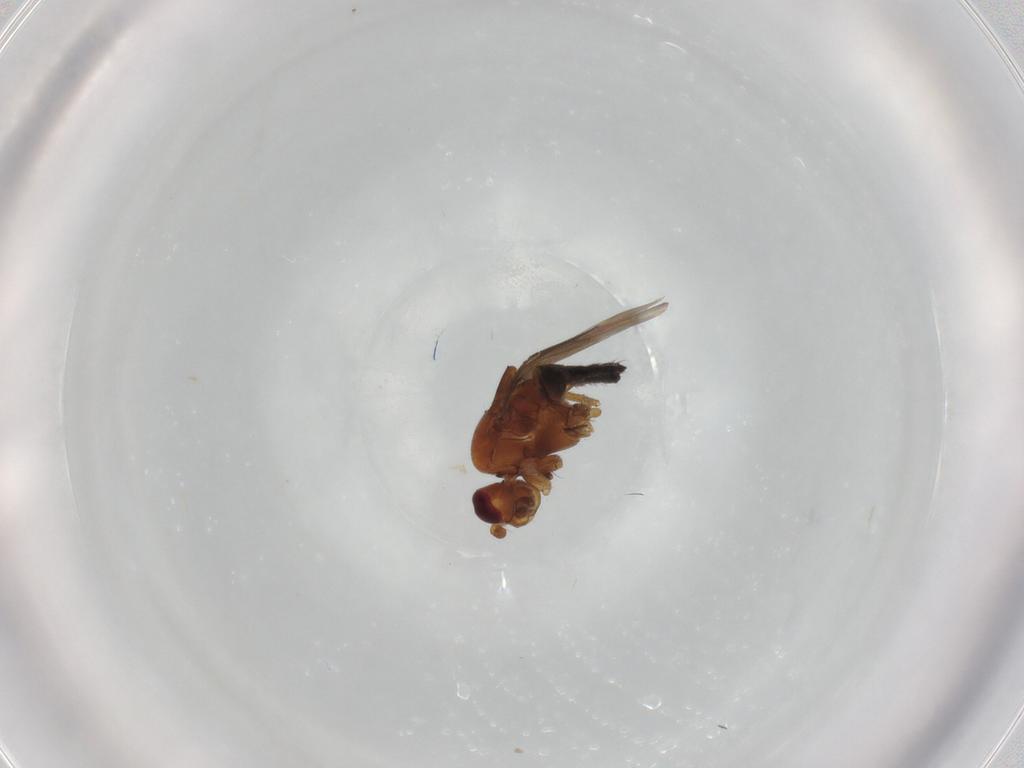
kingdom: Animalia
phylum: Arthropoda
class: Insecta
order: Diptera
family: Sphaeroceridae
